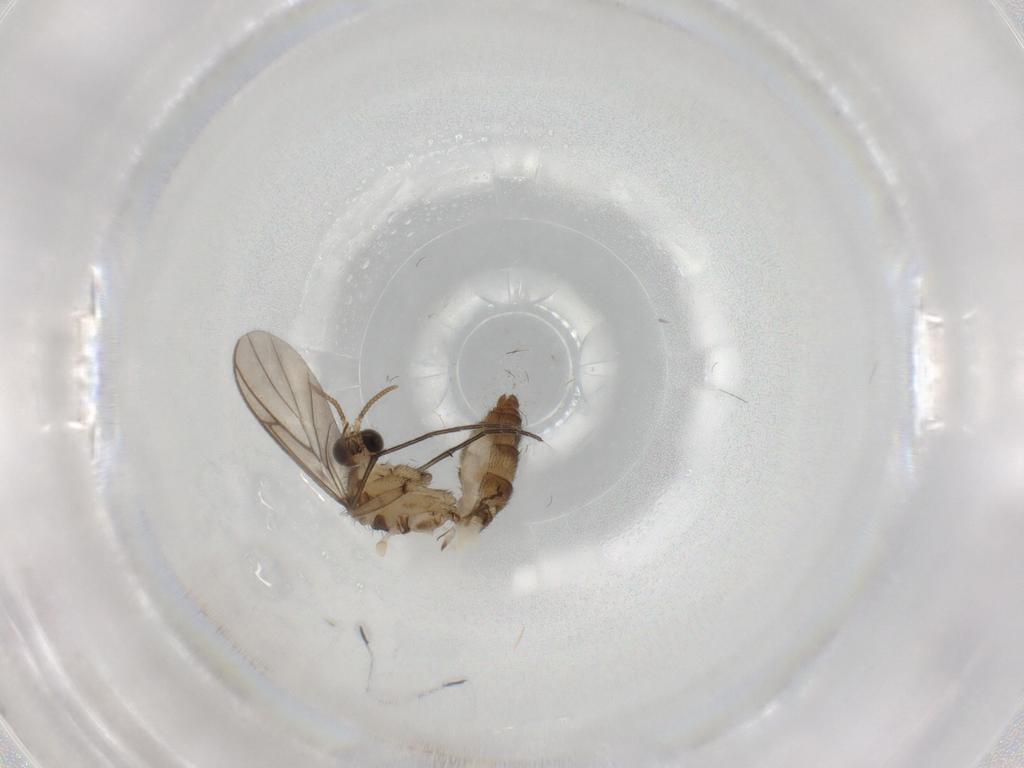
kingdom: Animalia
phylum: Arthropoda
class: Insecta
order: Diptera
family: Keroplatidae
